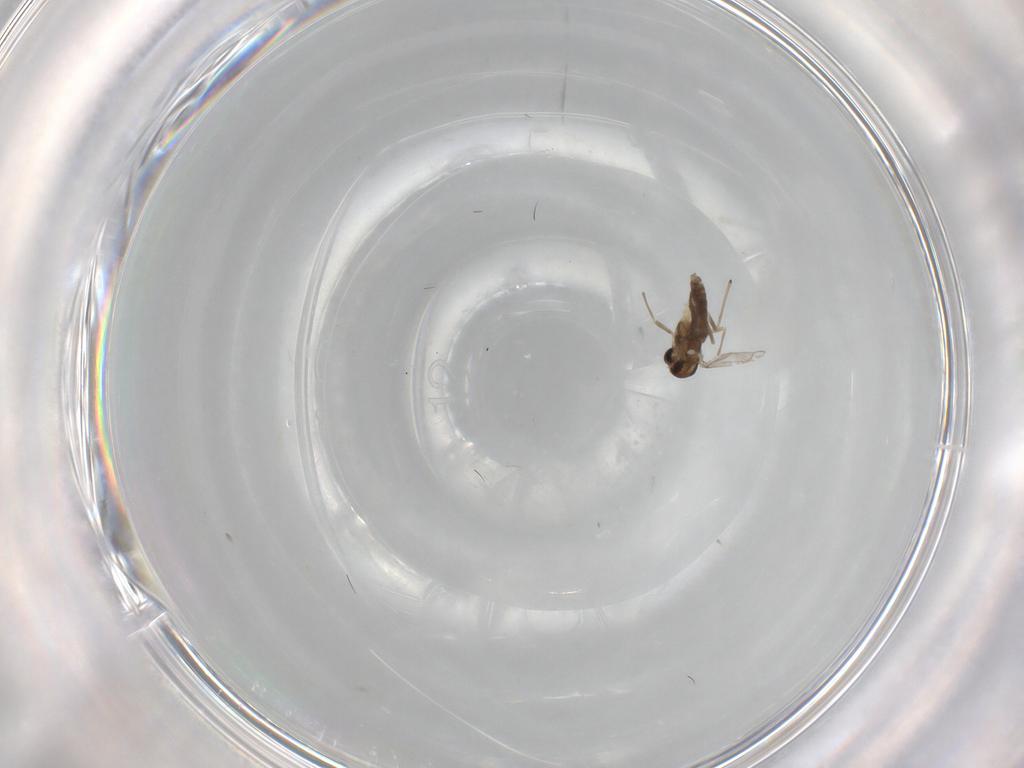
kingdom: Animalia
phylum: Arthropoda
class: Insecta
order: Diptera
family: Chironomidae
